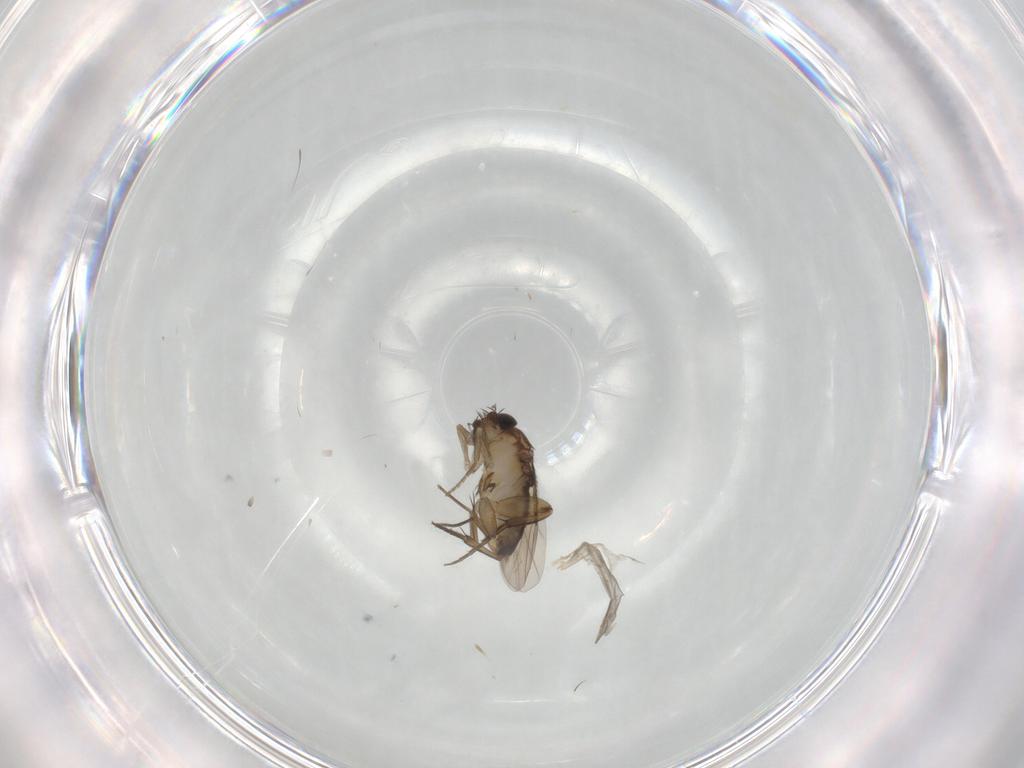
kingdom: Animalia
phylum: Arthropoda
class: Insecta
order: Diptera
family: Phoridae
